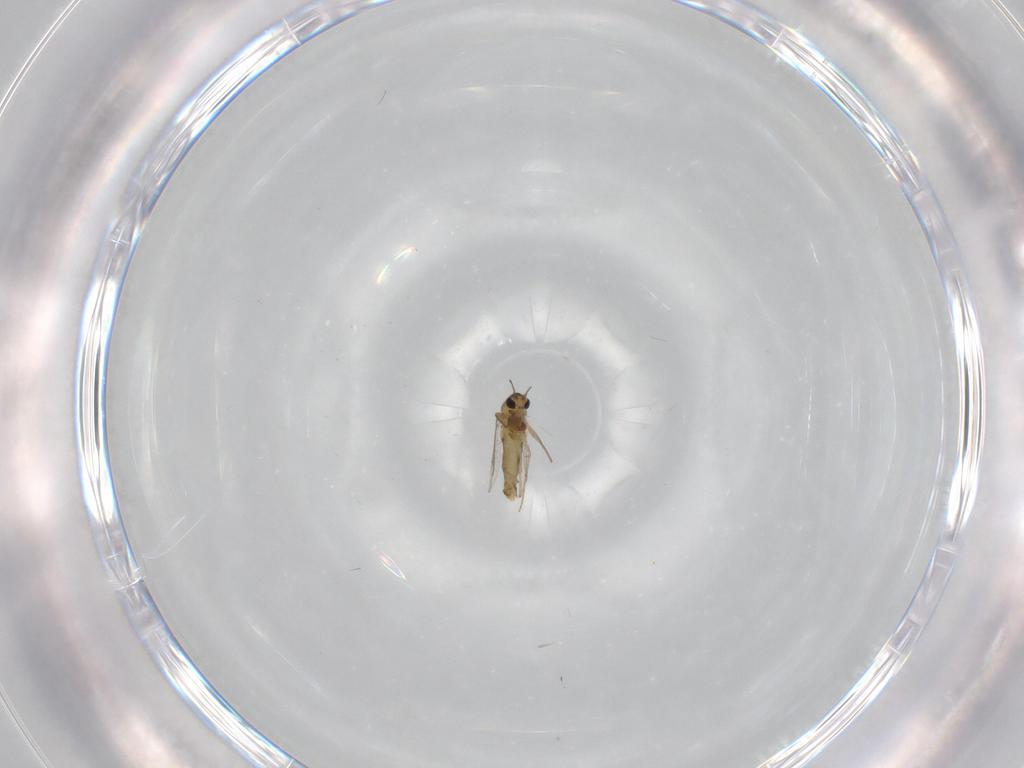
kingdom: Animalia
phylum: Arthropoda
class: Insecta
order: Diptera
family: Chironomidae
